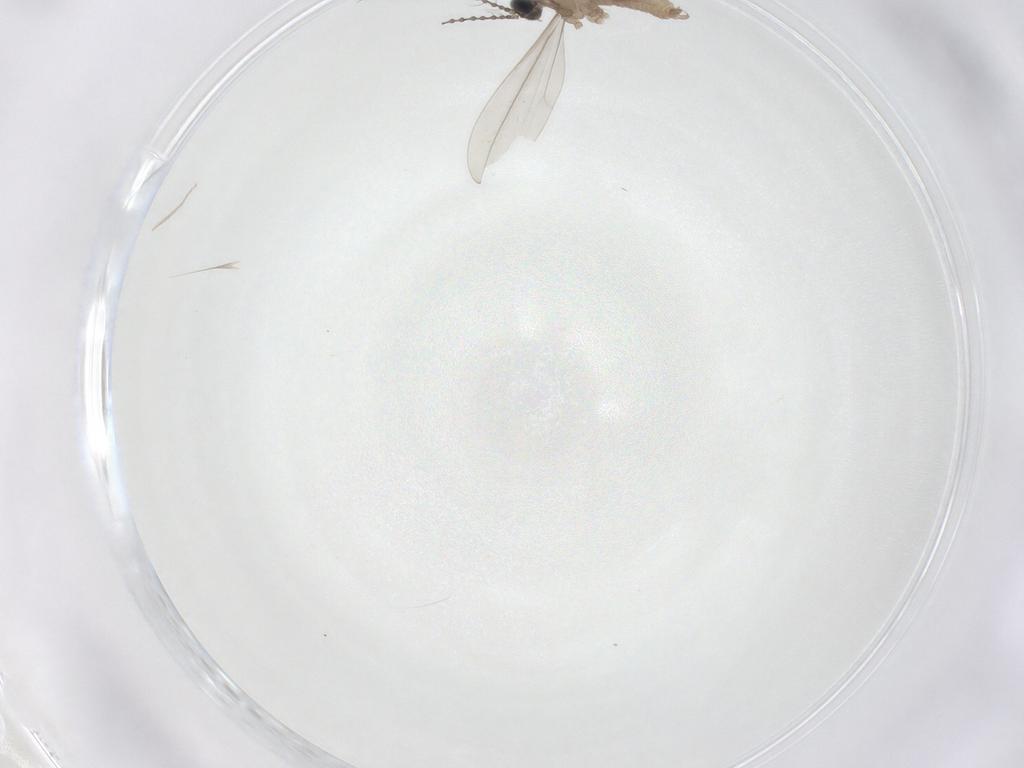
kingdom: Animalia
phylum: Arthropoda
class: Insecta
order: Diptera
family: Cecidomyiidae
